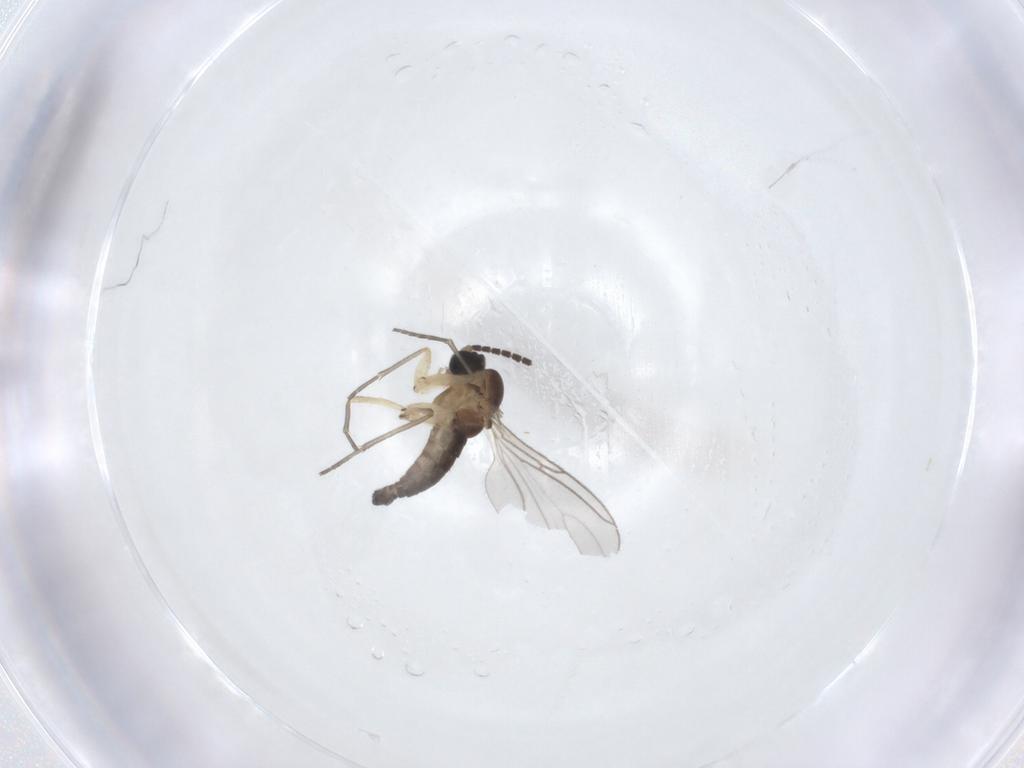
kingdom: Animalia
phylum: Arthropoda
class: Insecta
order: Diptera
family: Sciaridae
